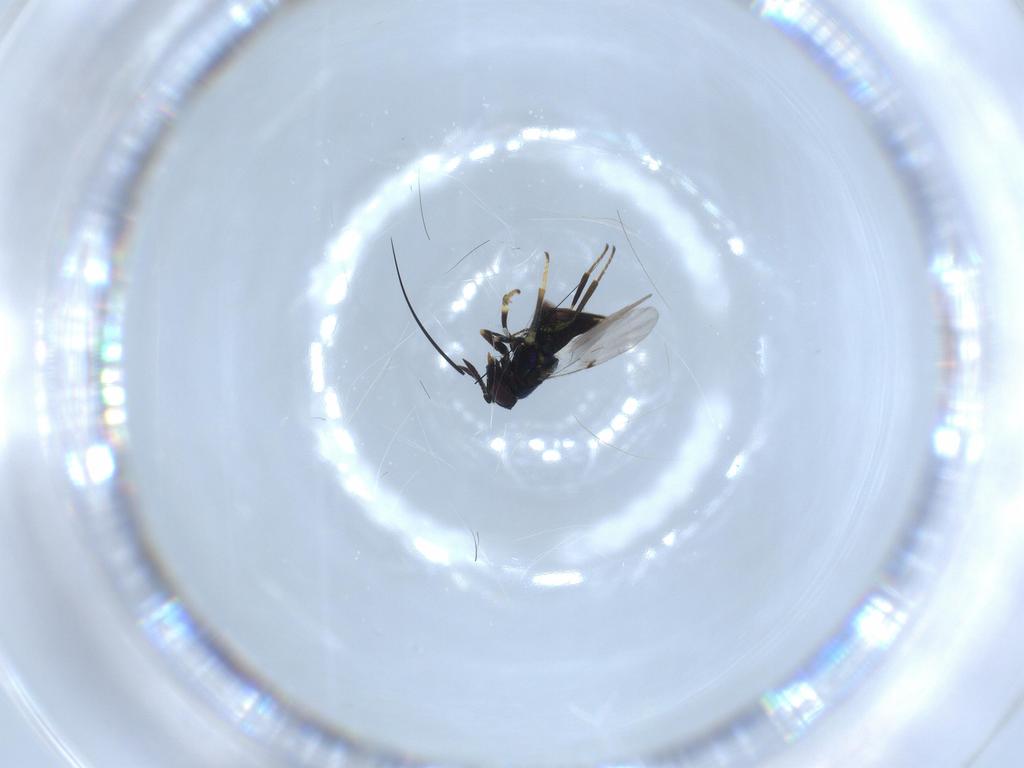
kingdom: Animalia
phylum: Arthropoda
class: Insecta
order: Hymenoptera
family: Encyrtidae
